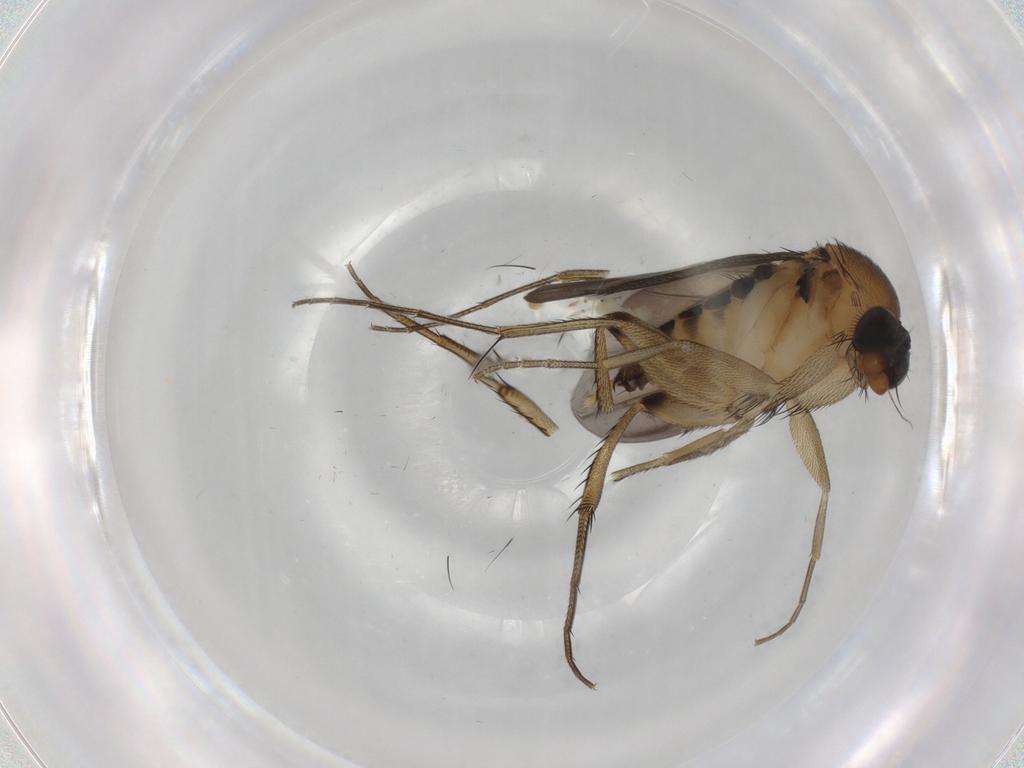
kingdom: Animalia
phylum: Arthropoda
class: Insecta
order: Diptera
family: Phoridae
